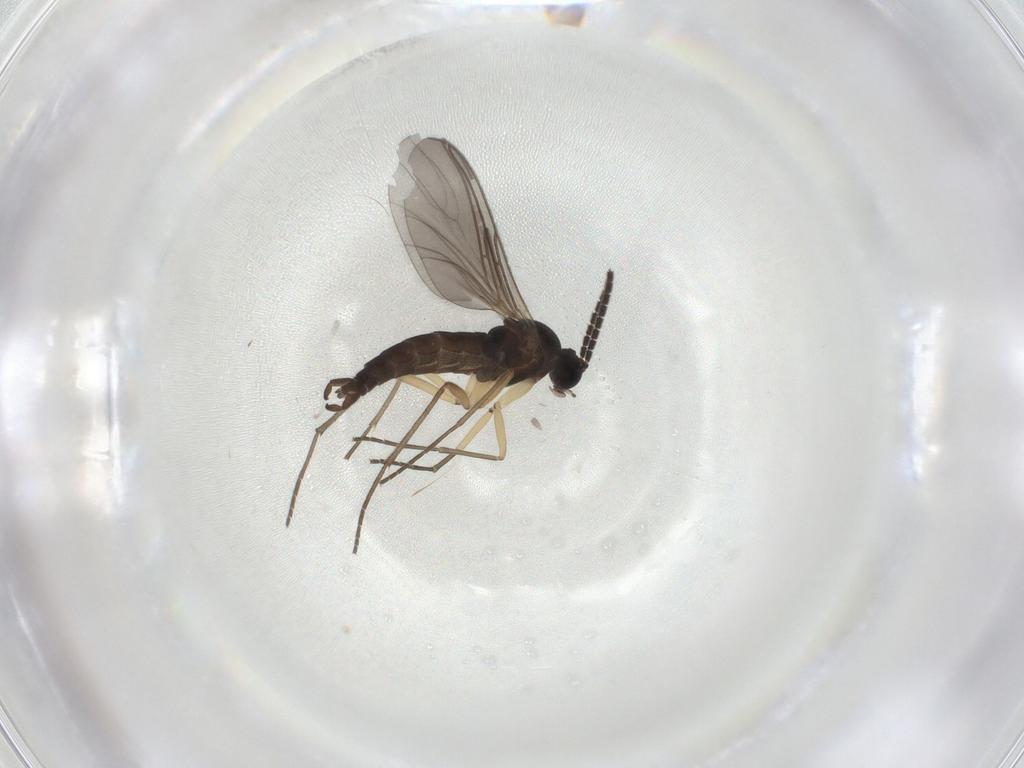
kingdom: Animalia
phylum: Arthropoda
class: Insecta
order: Diptera
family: Sciaridae
